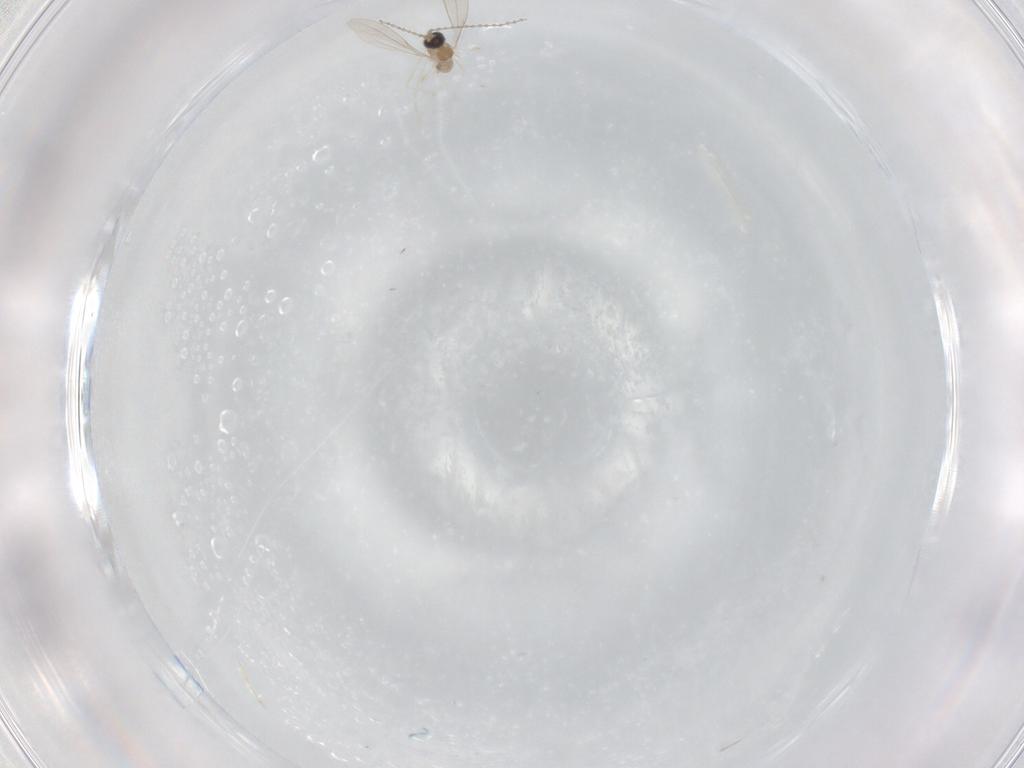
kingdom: Animalia
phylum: Arthropoda
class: Insecta
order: Diptera
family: Cecidomyiidae
